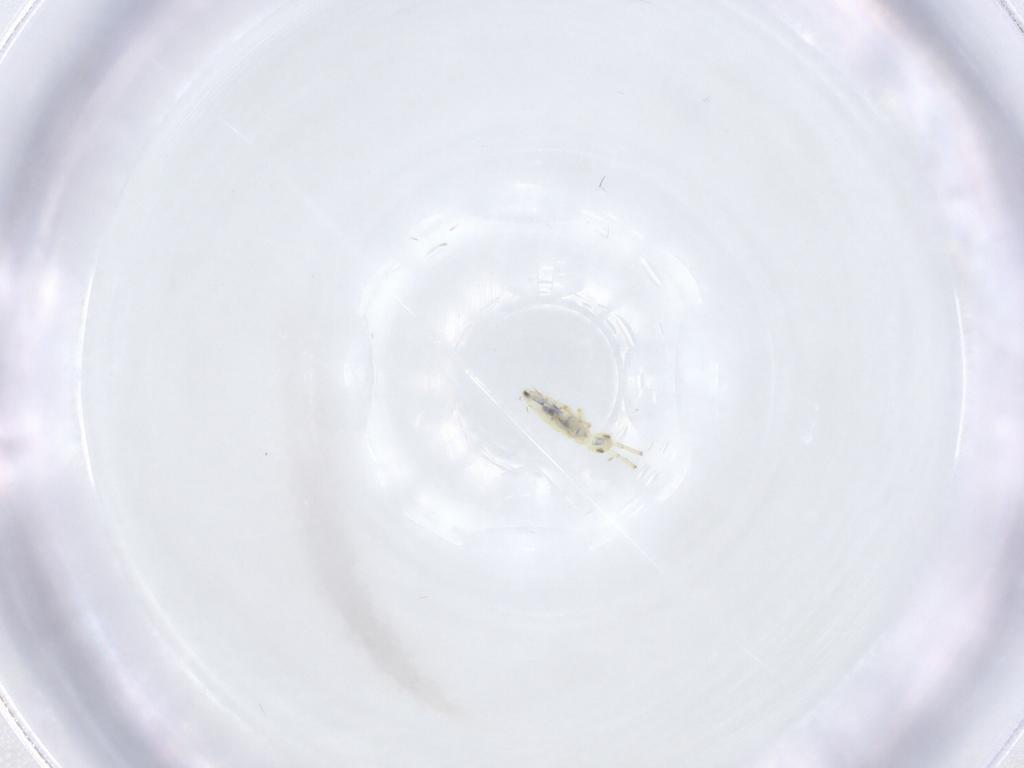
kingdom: Animalia
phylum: Arthropoda
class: Collembola
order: Entomobryomorpha
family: Paronellidae
